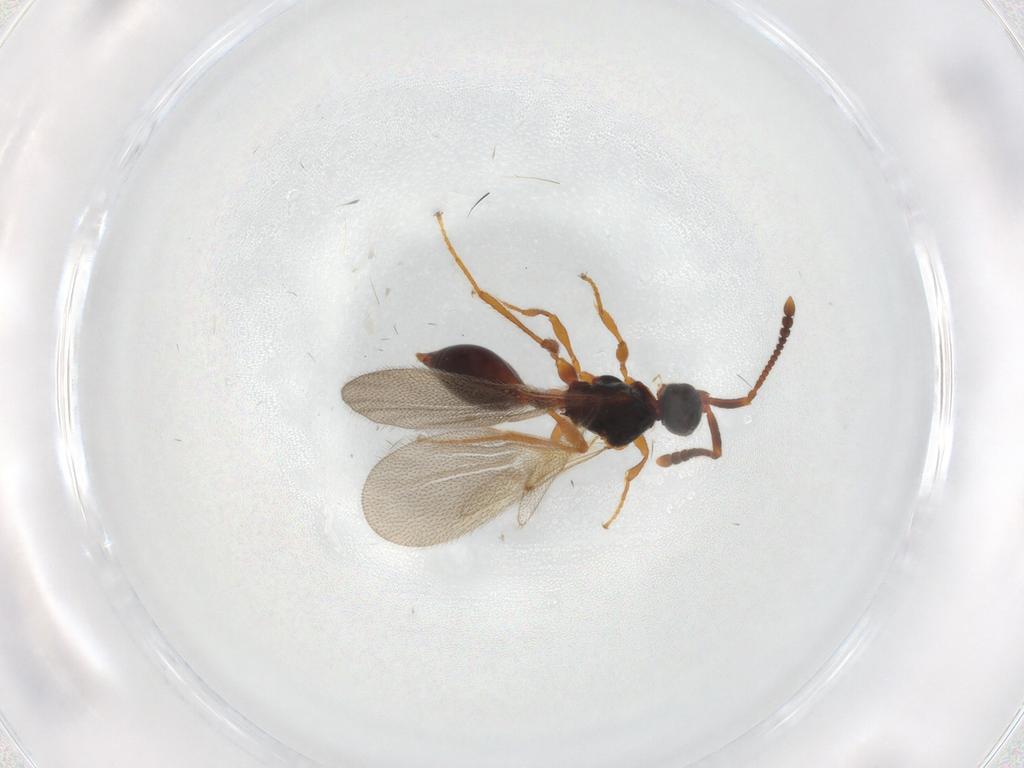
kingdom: Animalia
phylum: Arthropoda
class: Insecta
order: Hymenoptera
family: Diapriidae
